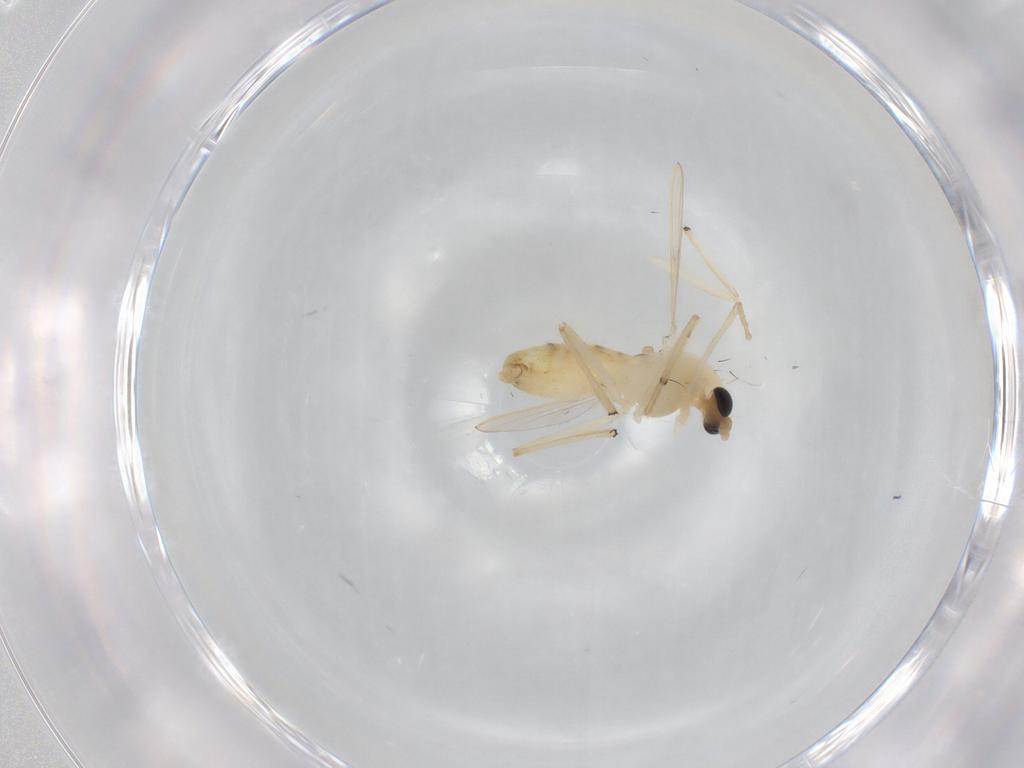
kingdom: Animalia
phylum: Arthropoda
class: Insecta
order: Diptera
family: Chironomidae
